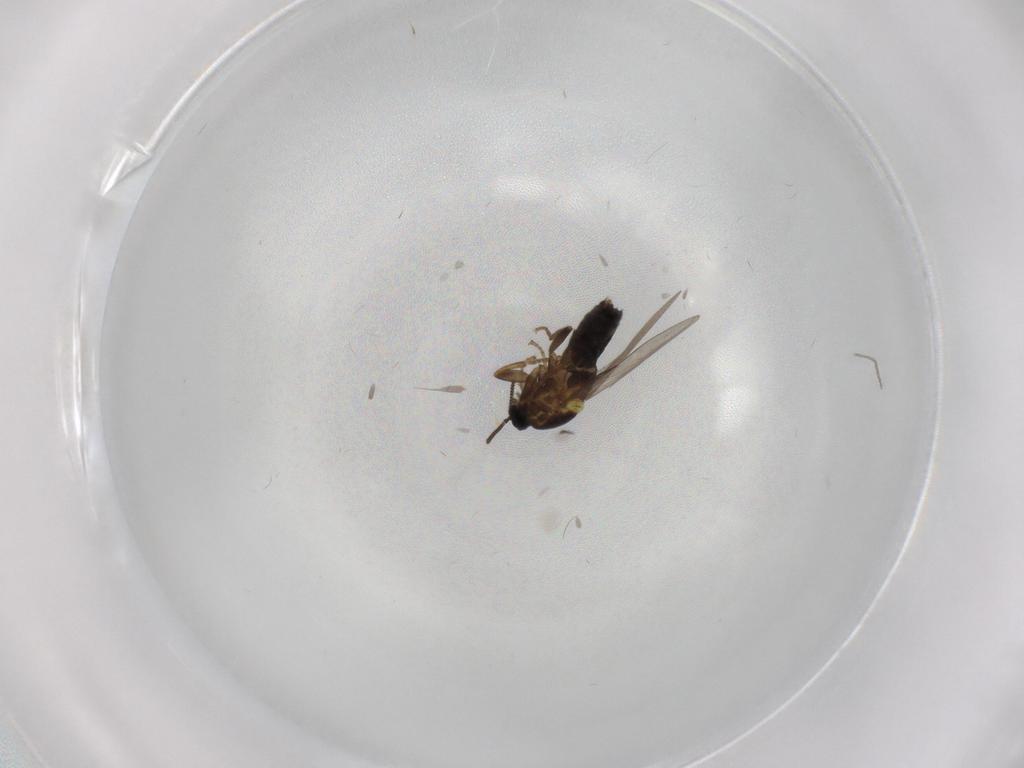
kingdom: Animalia
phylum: Arthropoda
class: Insecta
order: Diptera
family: Scatopsidae
